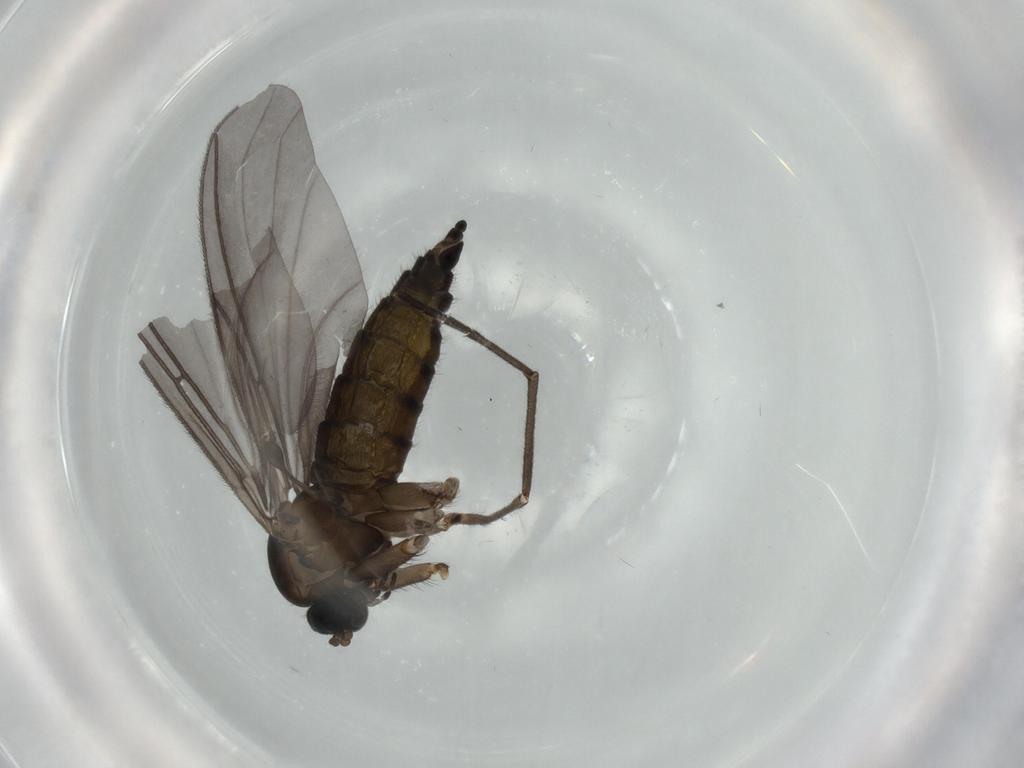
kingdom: Animalia
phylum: Arthropoda
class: Insecta
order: Diptera
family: Sciaridae
